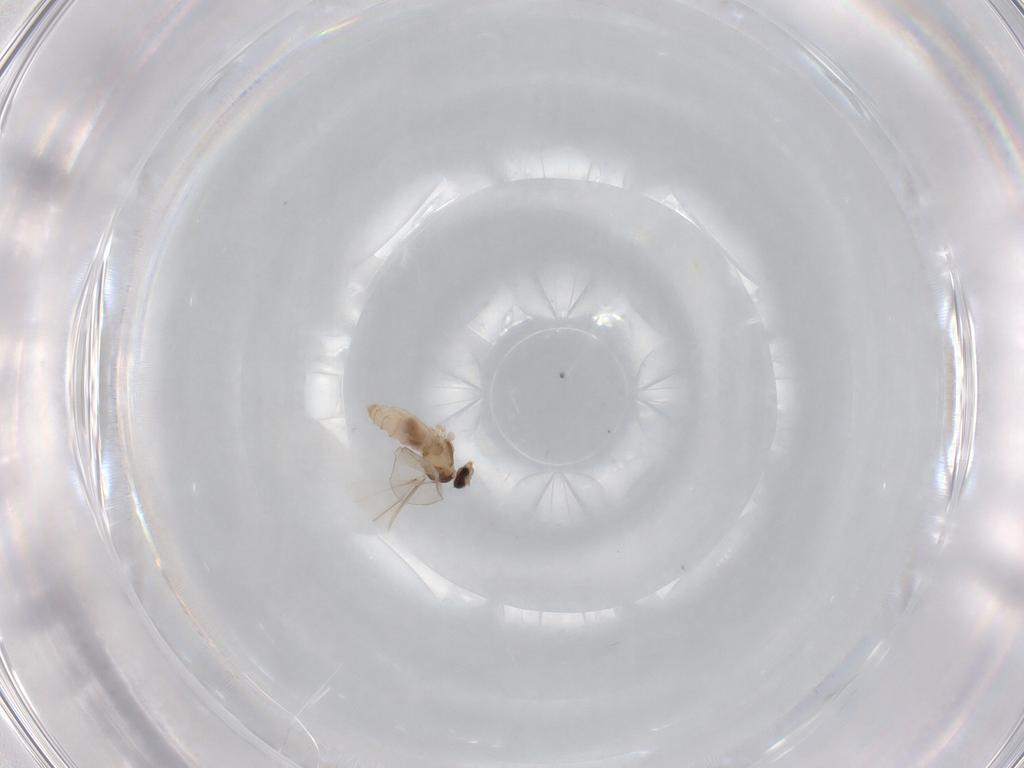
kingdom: Animalia
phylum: Arthropoda
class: Insecta
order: Diptera
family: Cecidomyiidae
